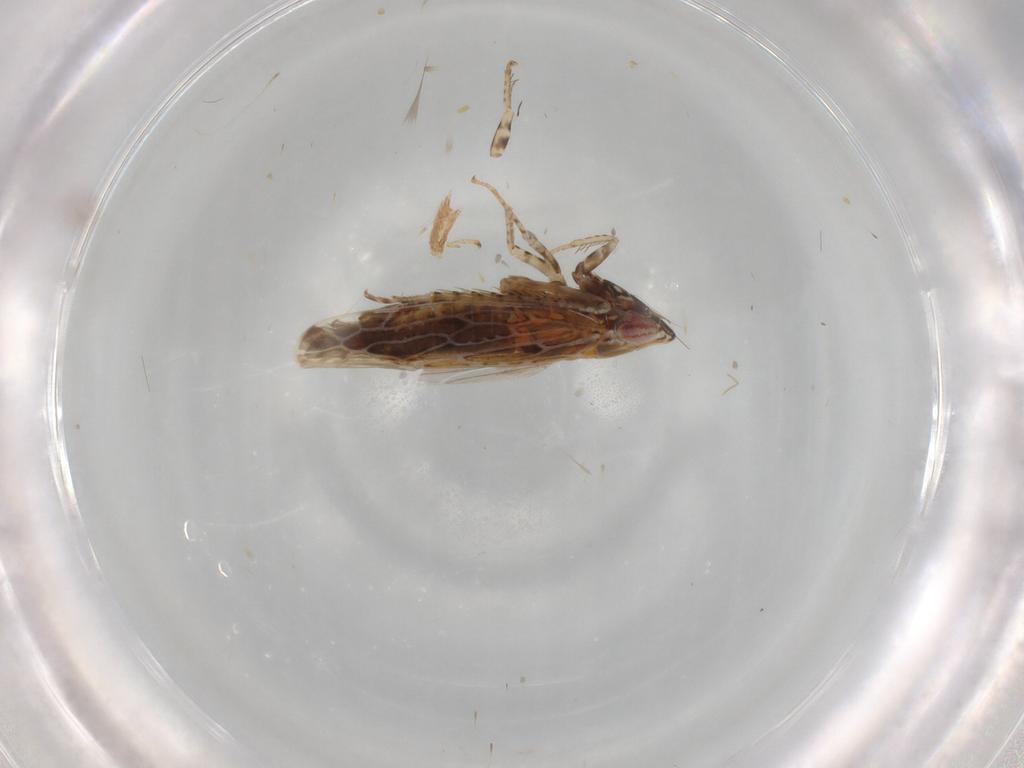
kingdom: Animalia
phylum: Arthropoda
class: Insecta
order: Hemiptera
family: Cicadellidae
